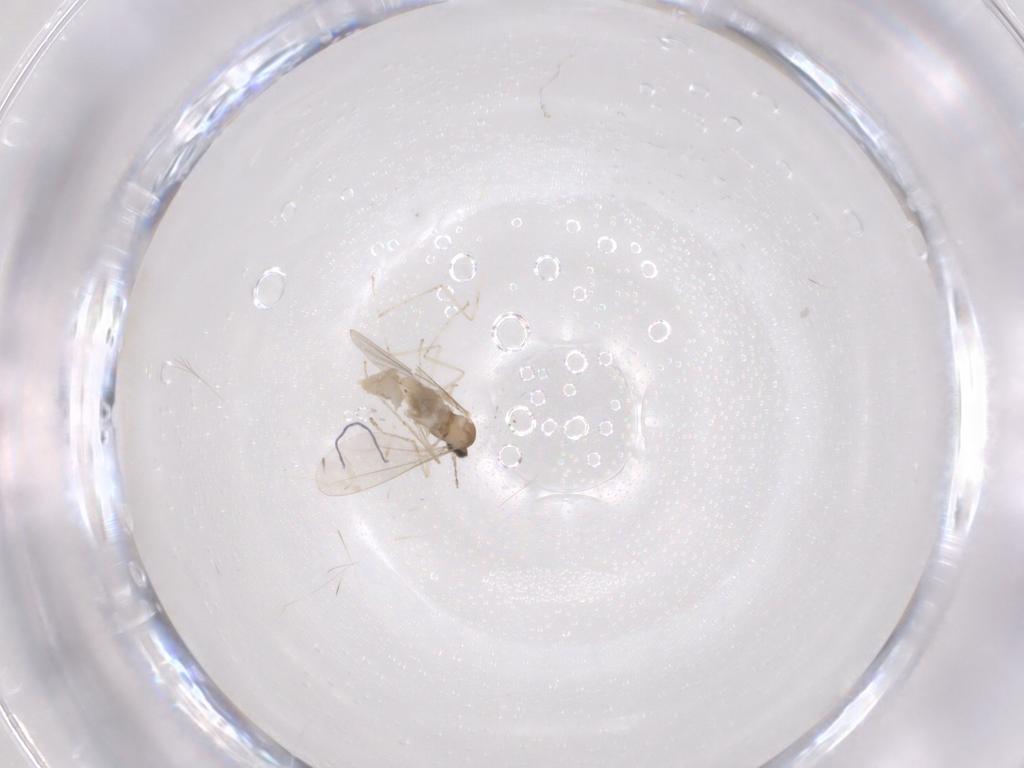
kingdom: Animalia
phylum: Arthropoda
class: Insecta
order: Diptera
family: Cecidomyiidae
